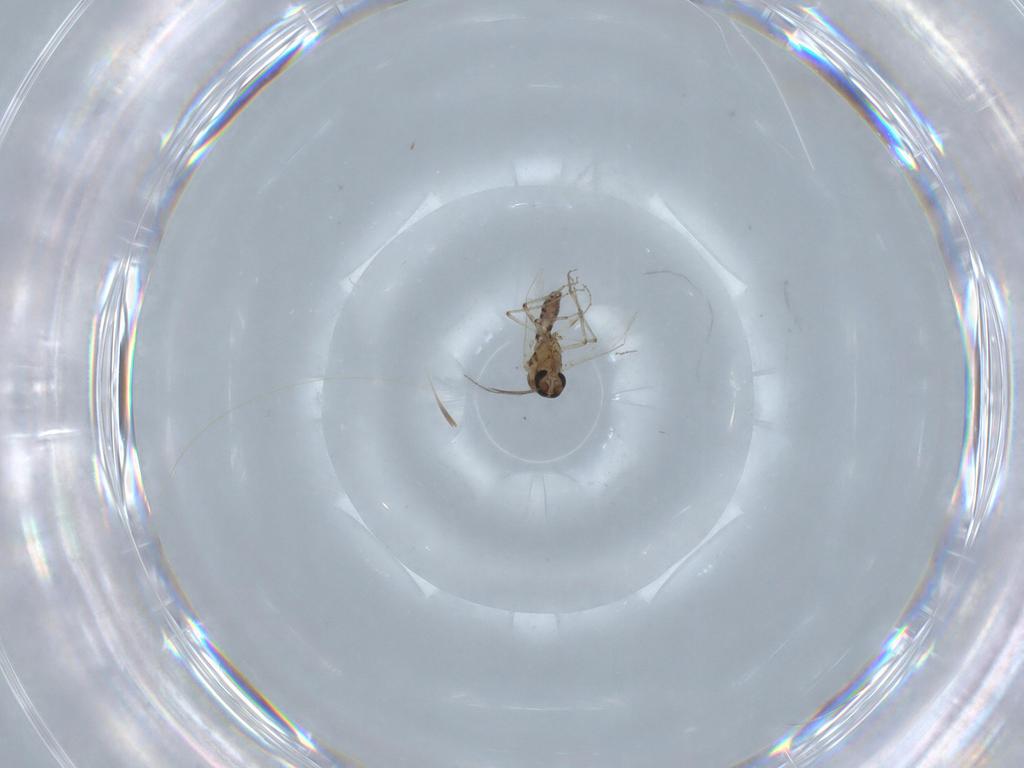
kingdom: Animalia
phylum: Arthropoda
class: Insecta
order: Diptera
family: Ceratopogonidae
